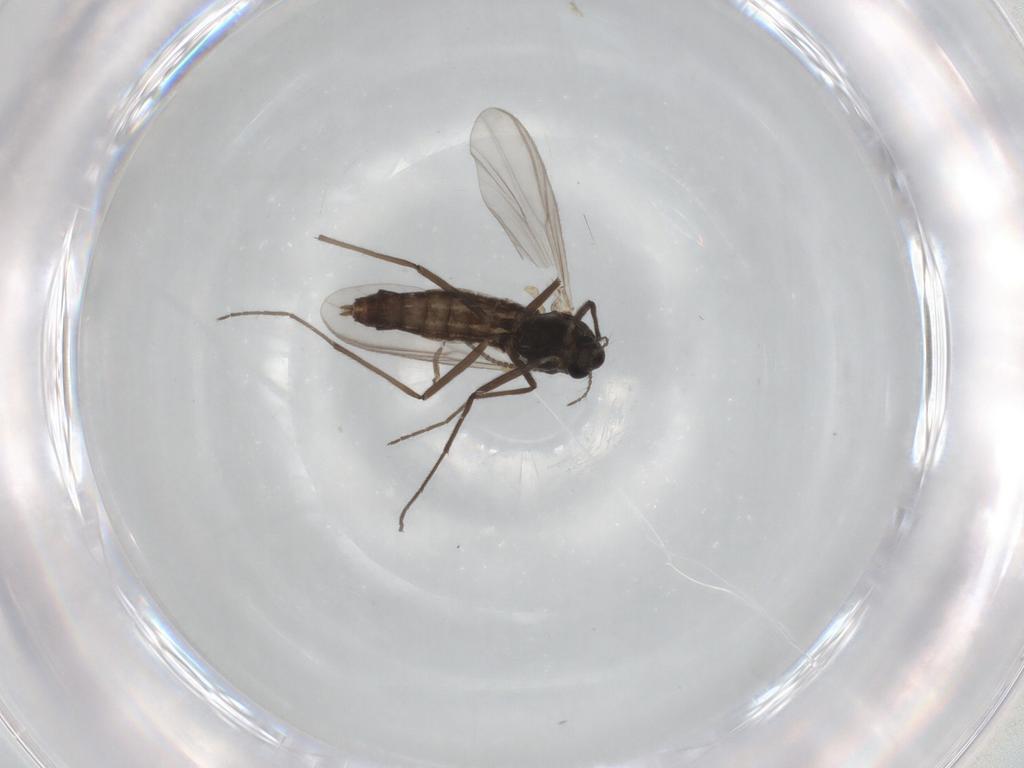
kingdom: Animalia
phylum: Arthropoda
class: Insecta
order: Diptera
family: Chironomidae
